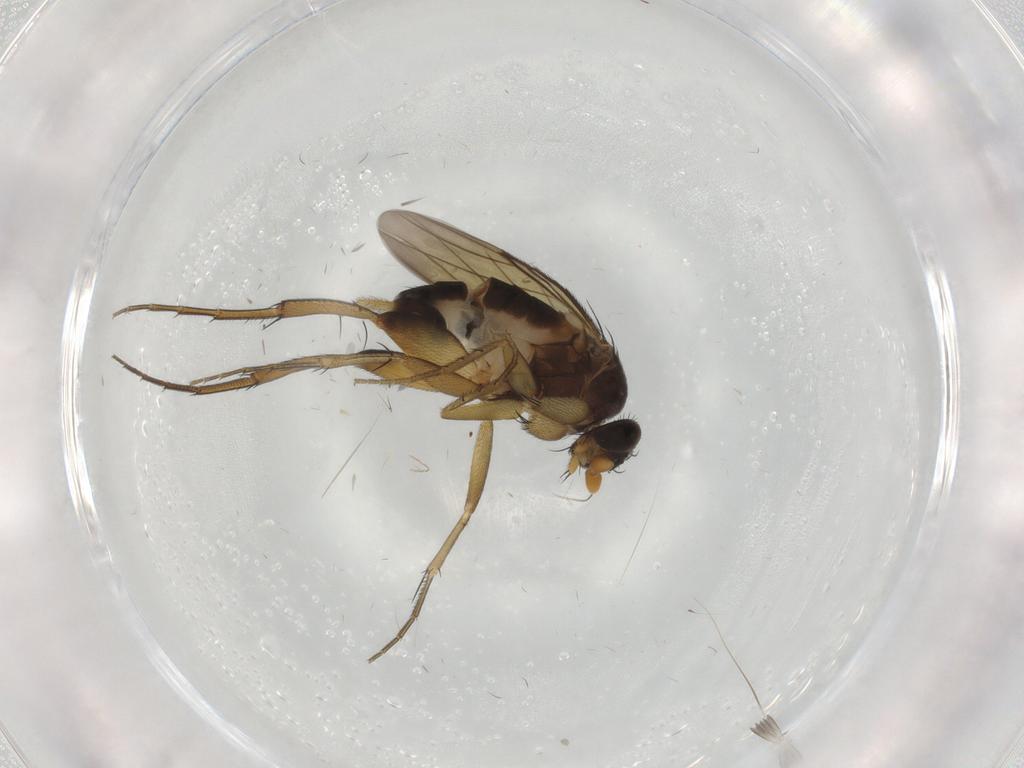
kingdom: Animalia
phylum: Arthropoda
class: Insecta
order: Diptera
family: Phoridae
